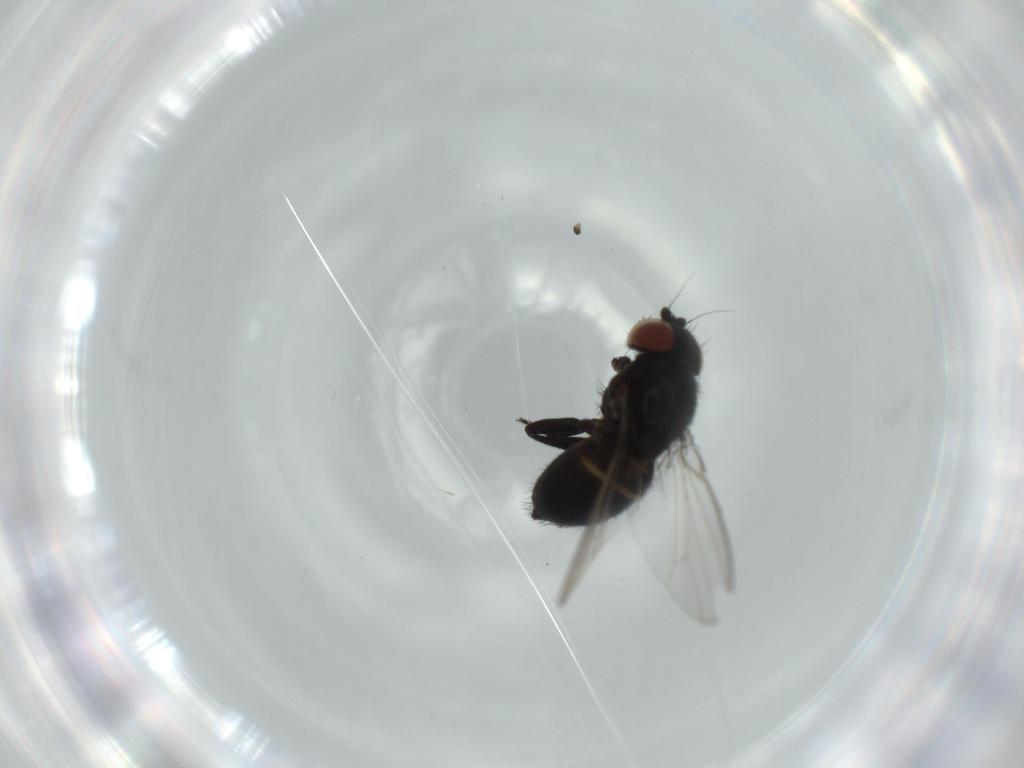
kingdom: Animalia
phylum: Arthropoda
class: Insecta
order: Diptera
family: Milichiidae
